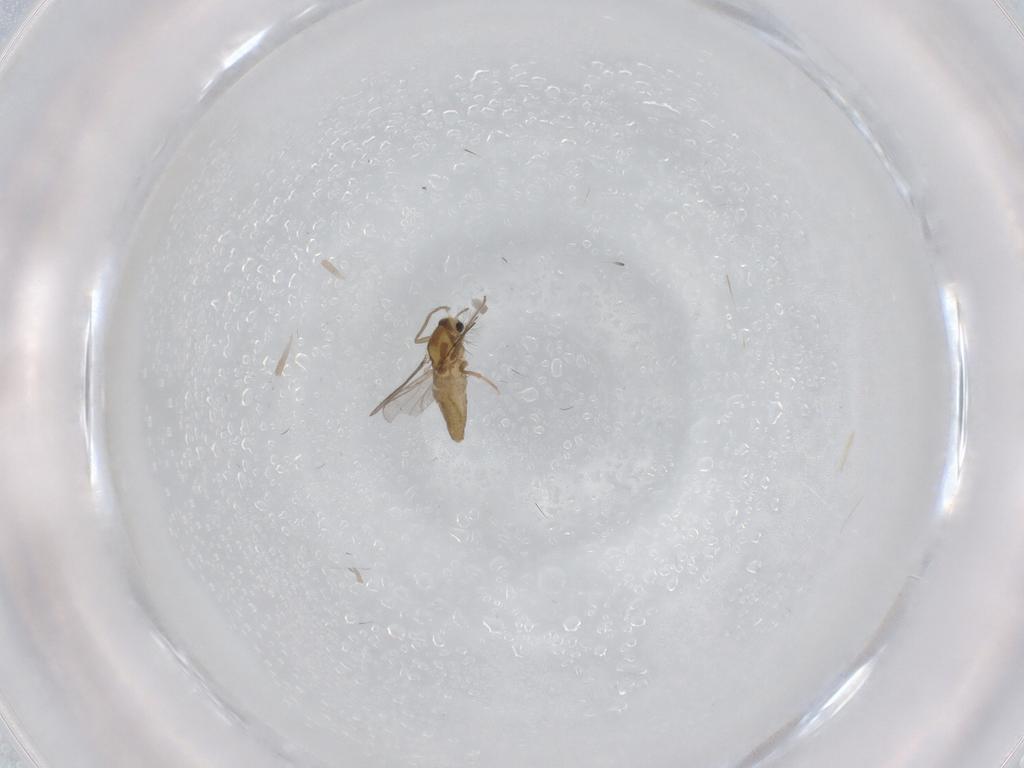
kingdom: Animalia
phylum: Arthropoda
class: Insecta
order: Diptera
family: Chironomidae
